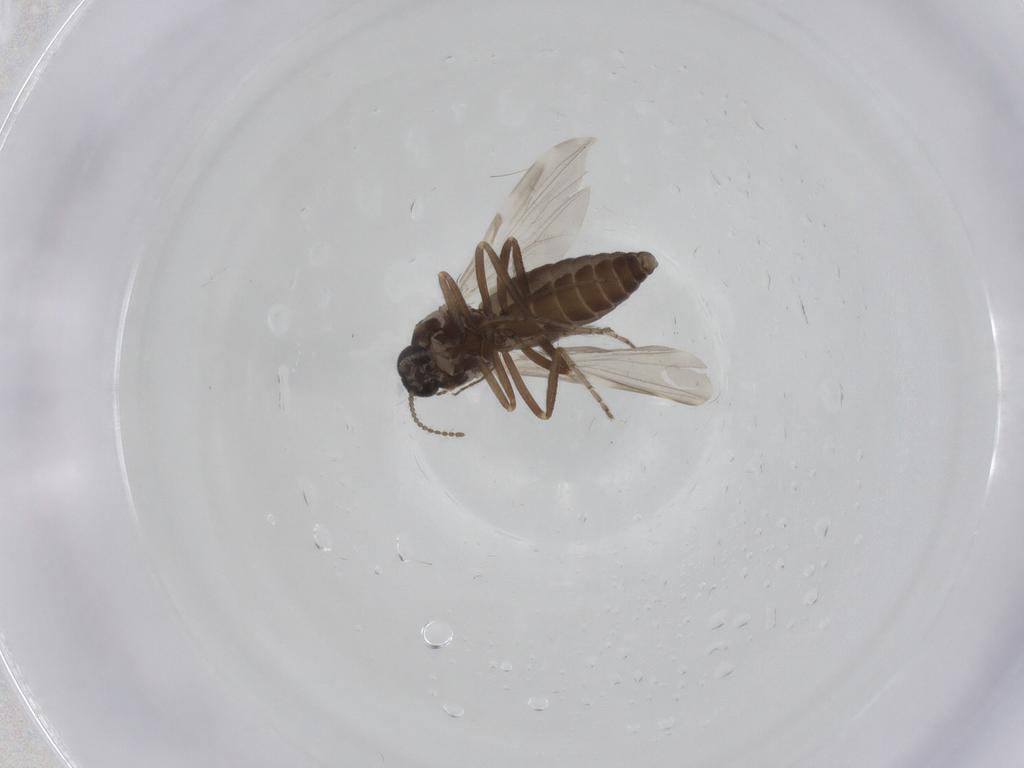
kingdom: Animalia
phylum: Arthropoda
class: Insecta
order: Diptera
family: Ceratopogonidae
